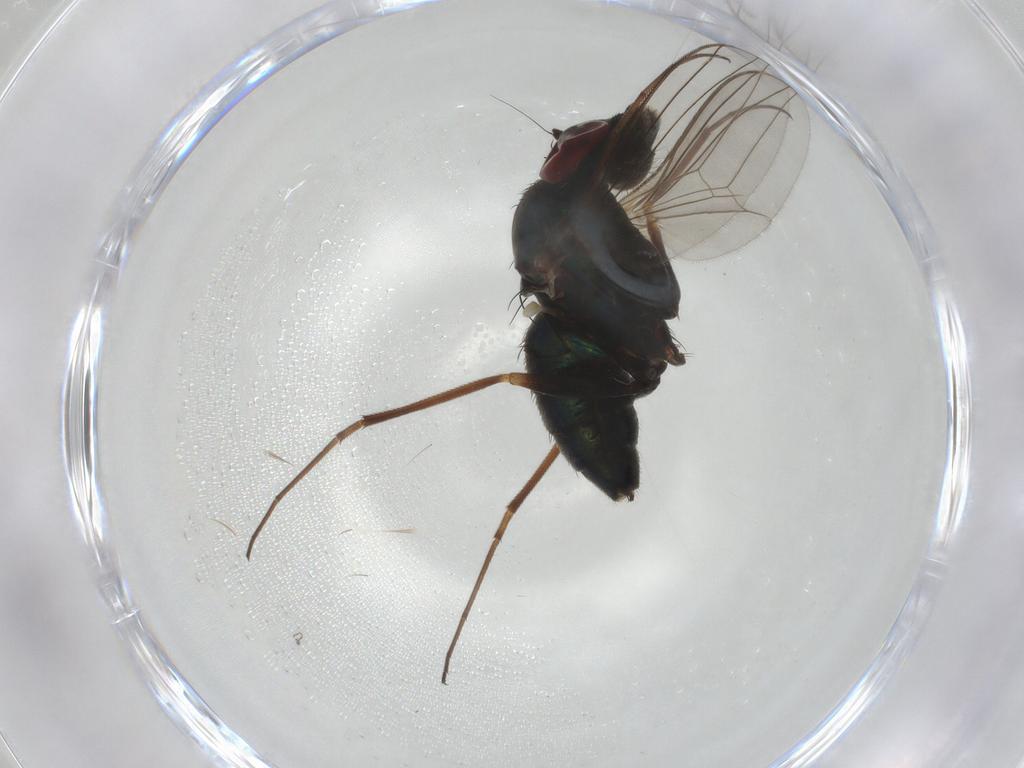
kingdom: Animalia
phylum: Arthropoda
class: Insecta
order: Diptera
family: Dolichopodidae
